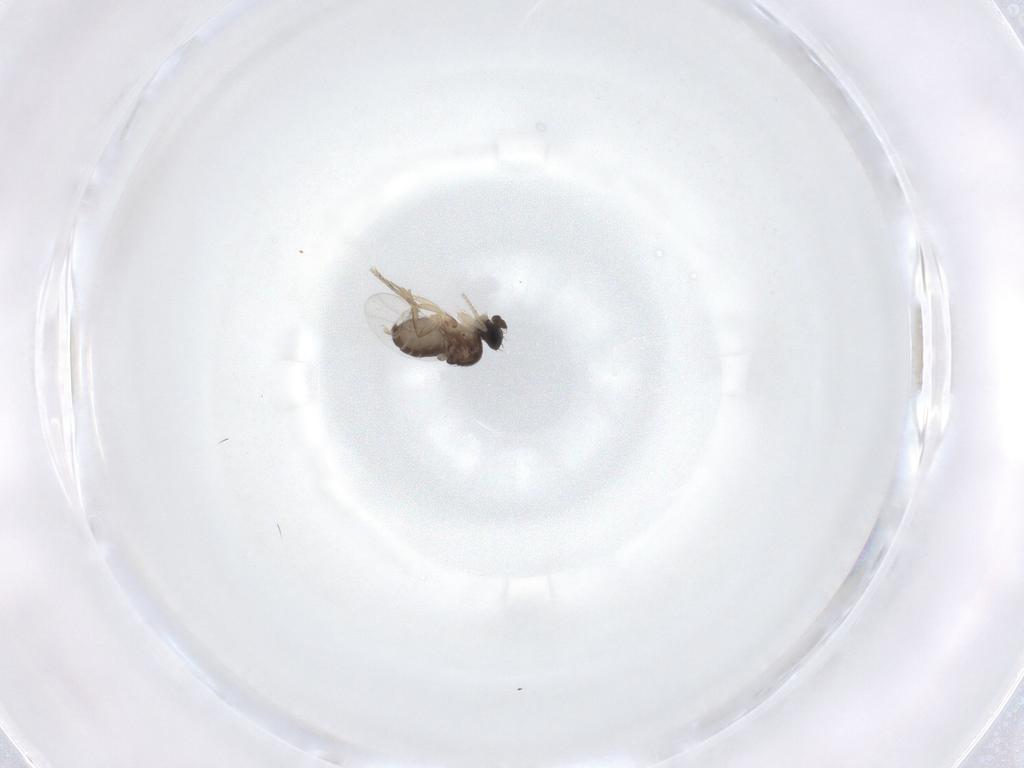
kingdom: Animalia
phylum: Arthropoda
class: Insecta
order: Diptera
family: Phoridae
